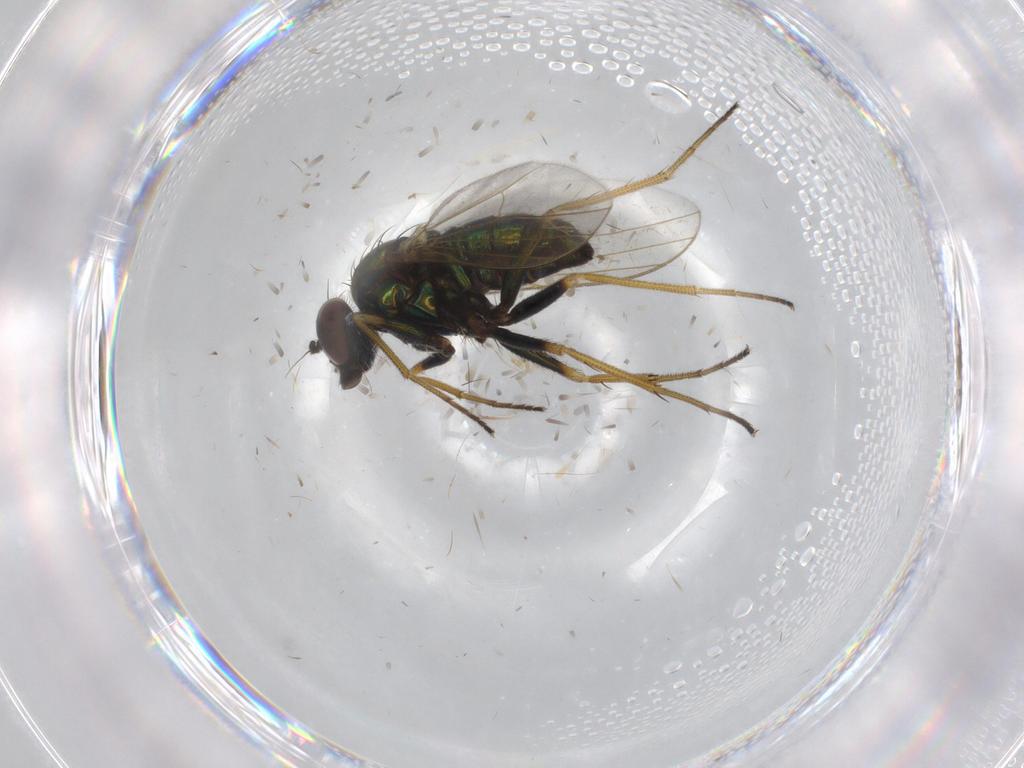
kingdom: Animalia
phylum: Arthropoda
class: Insecta
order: Diptera
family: Dolichopodidae
